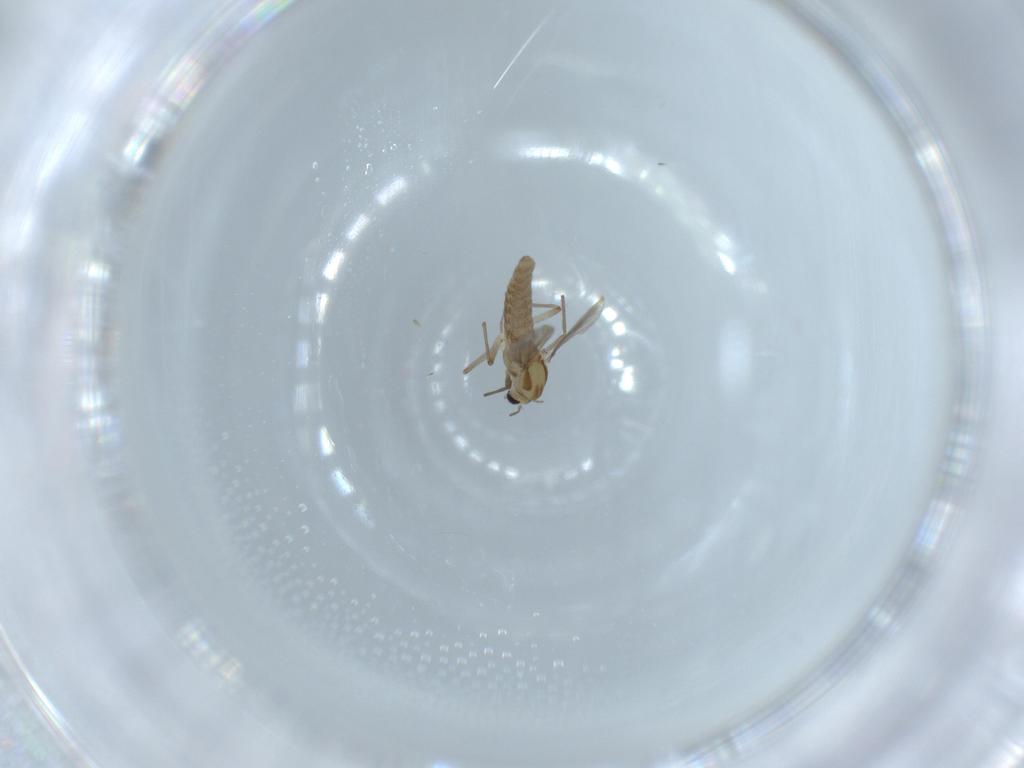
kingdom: Animalia
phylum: Arthropoda
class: Insecta
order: Diptera
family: Chironomidae
